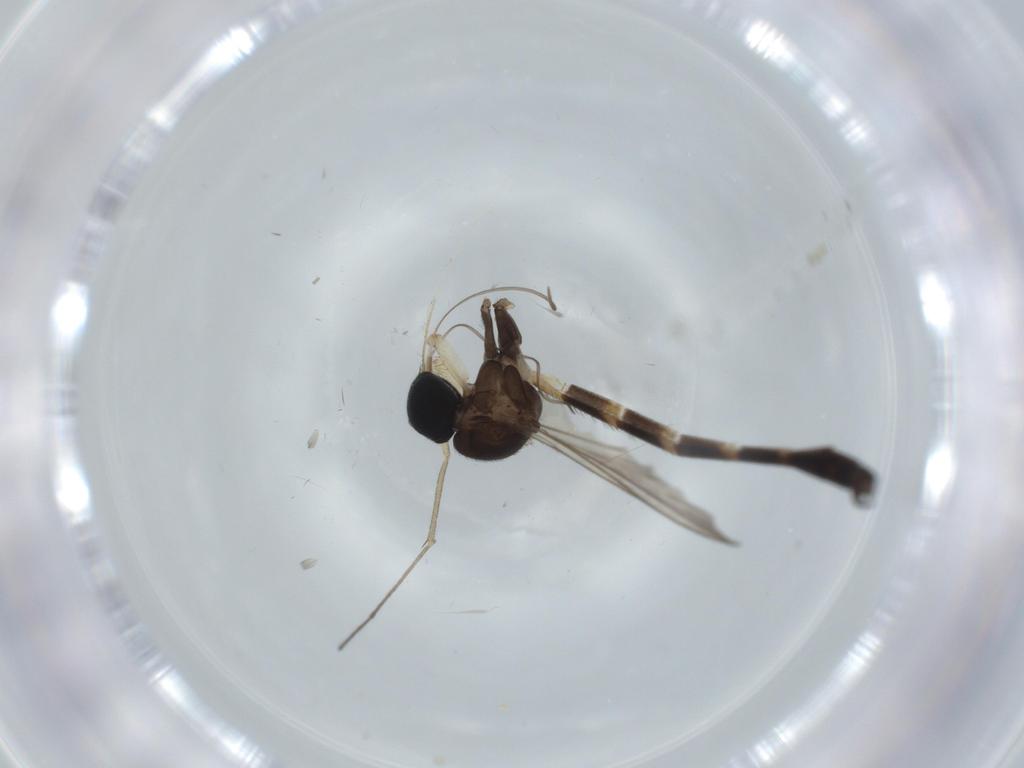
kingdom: Animalia
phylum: Arthropoda
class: Insecta
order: Diptera
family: Keroplatidae
